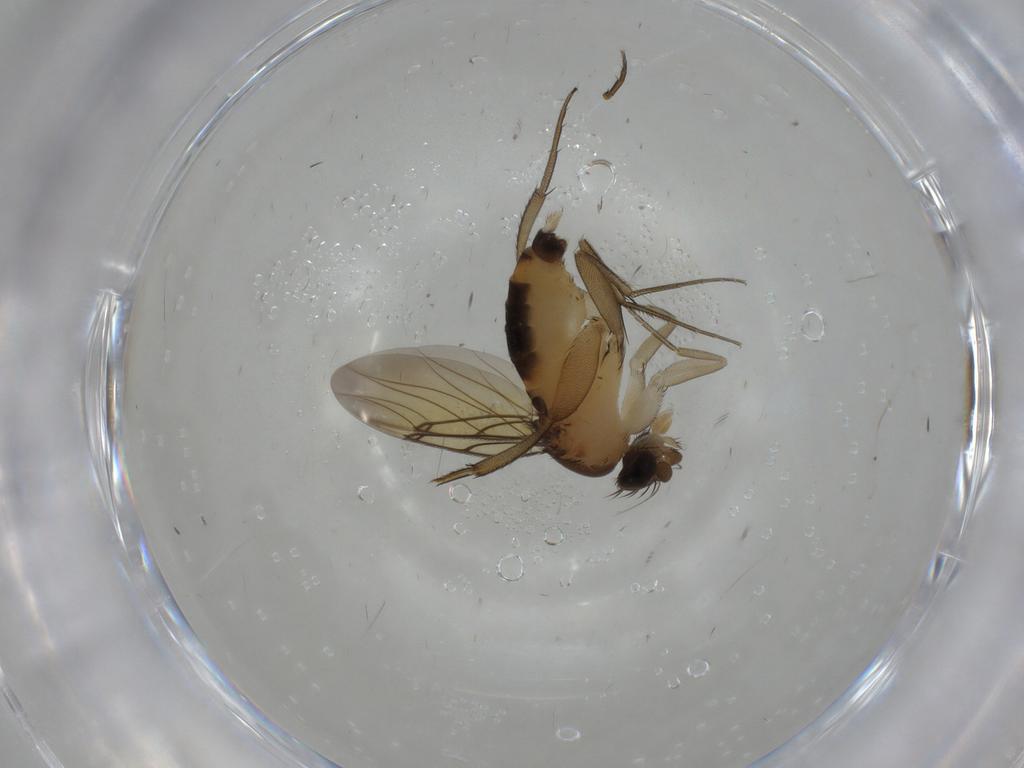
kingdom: Animalia
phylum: Arthropoda
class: Insecta
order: Diptera
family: Phoridae
